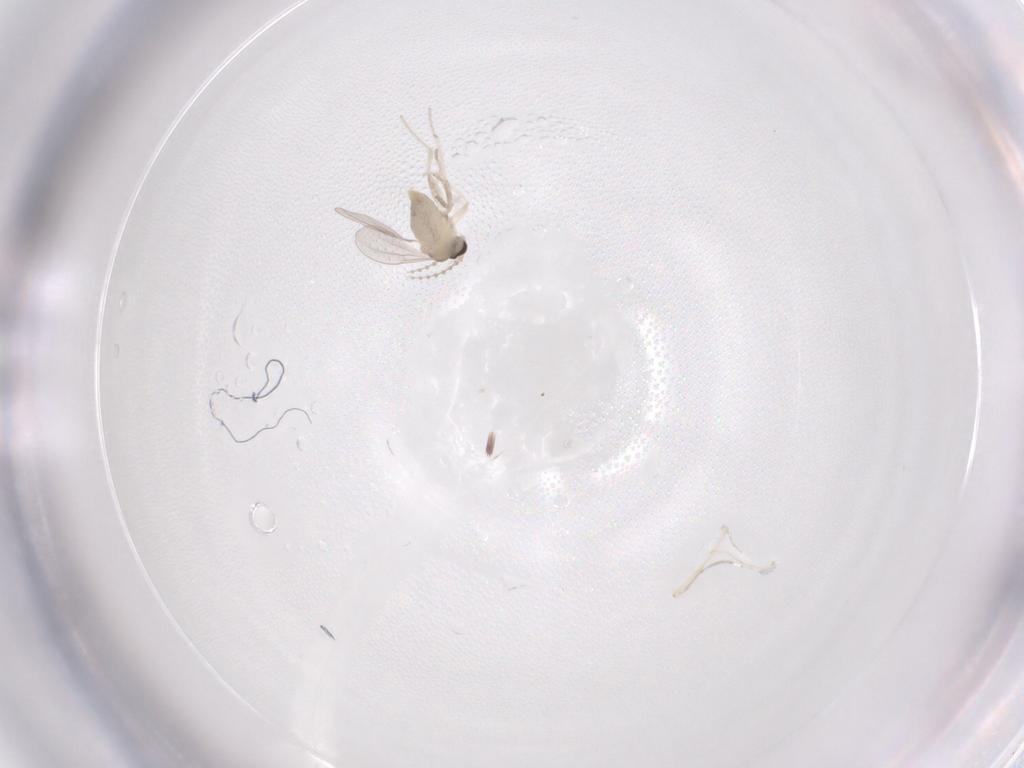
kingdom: Animalia
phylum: Arthropoda
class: Insecta
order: Diptera
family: Cecidomyiidae
